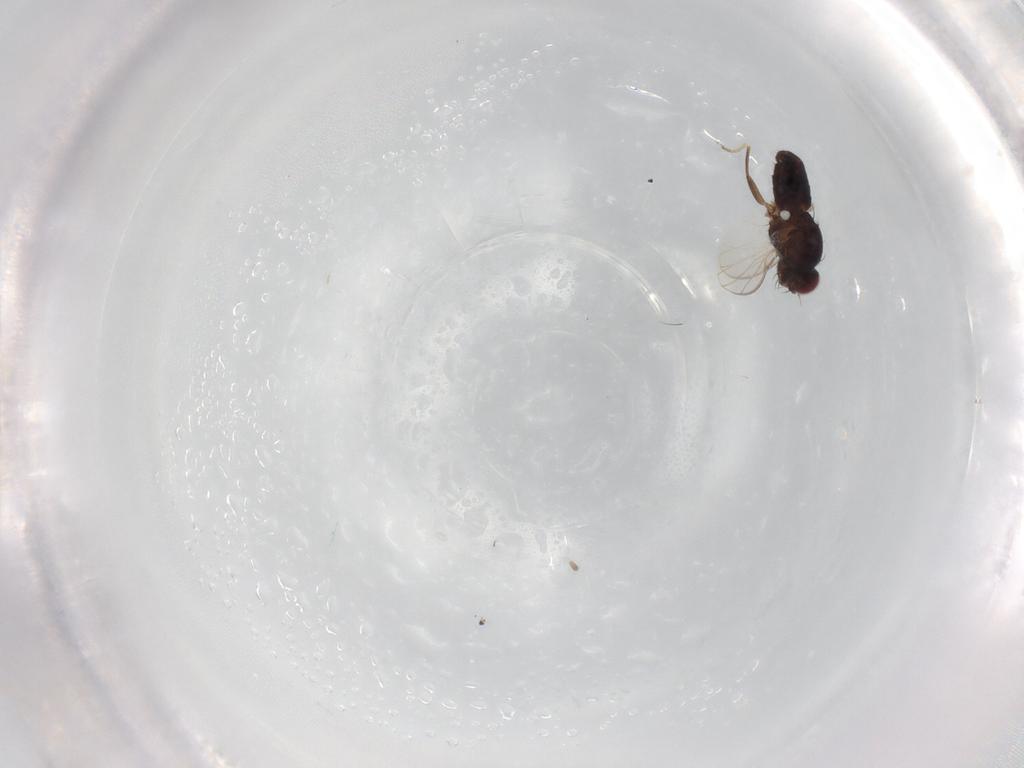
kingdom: Animalia
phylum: Arthropoda
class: Insecta
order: Diptera
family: Carnidae
